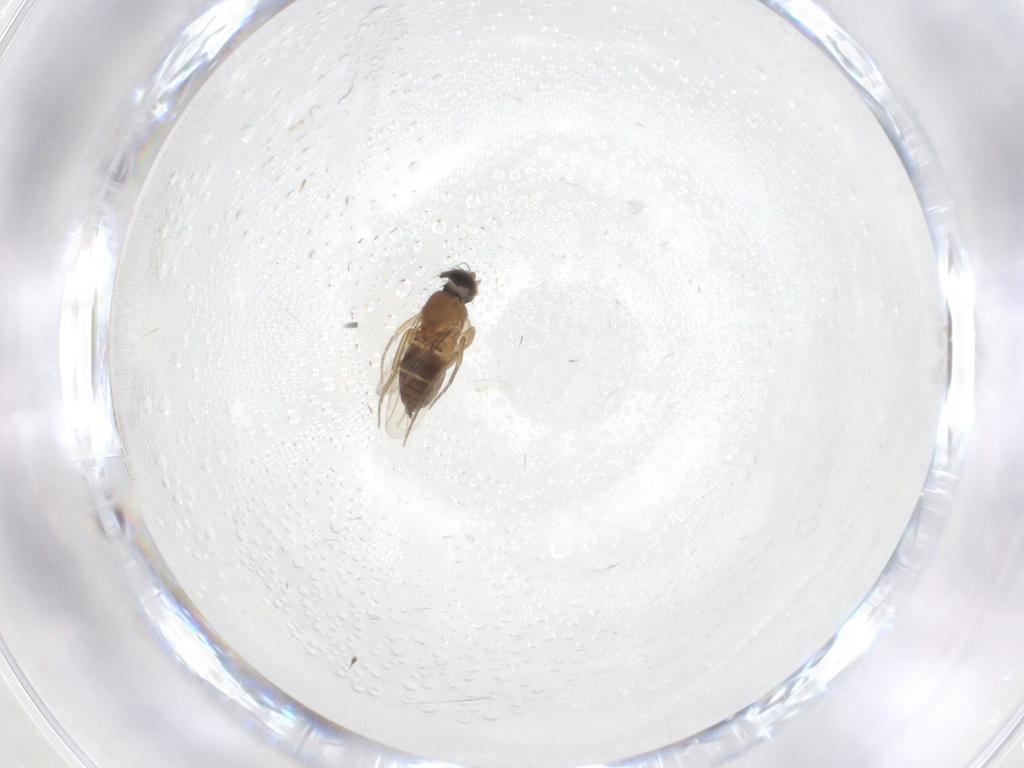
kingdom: Animalia
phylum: Arthropoda
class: Insecta
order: Diptera
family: Phoridae
